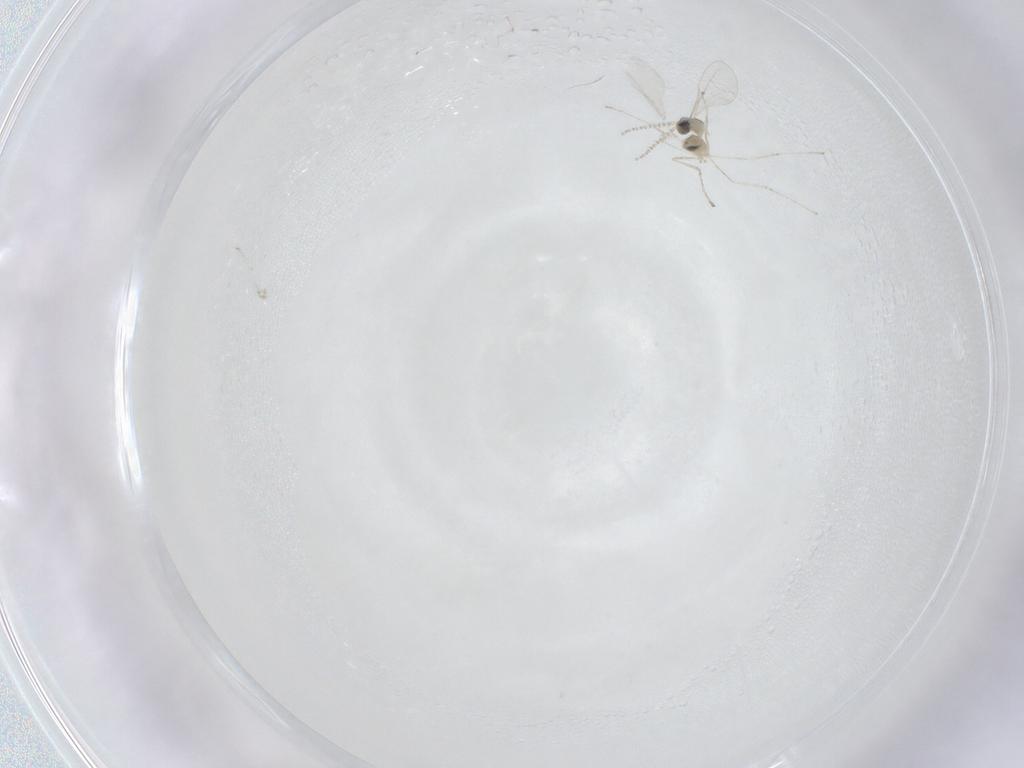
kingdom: Animalia
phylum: Arthropoda
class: Insecta
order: Diptera
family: Cecidomyiidae
